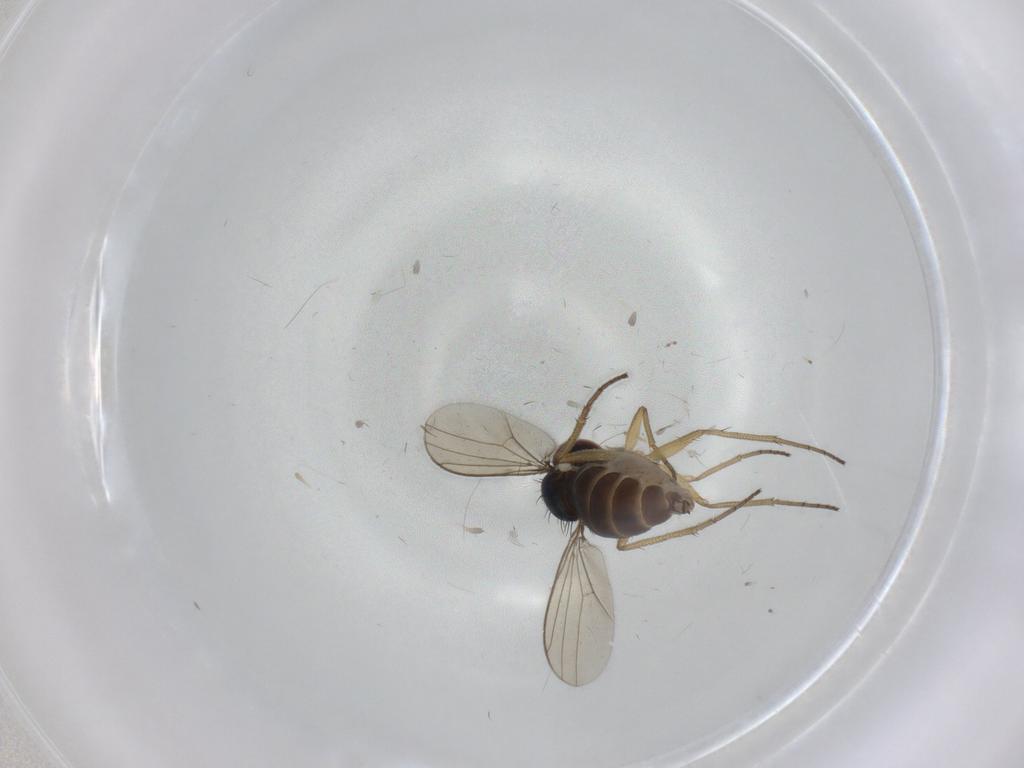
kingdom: Animalia
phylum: Arthropoda
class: Insecta
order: Diptera
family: Dolichopodidae
